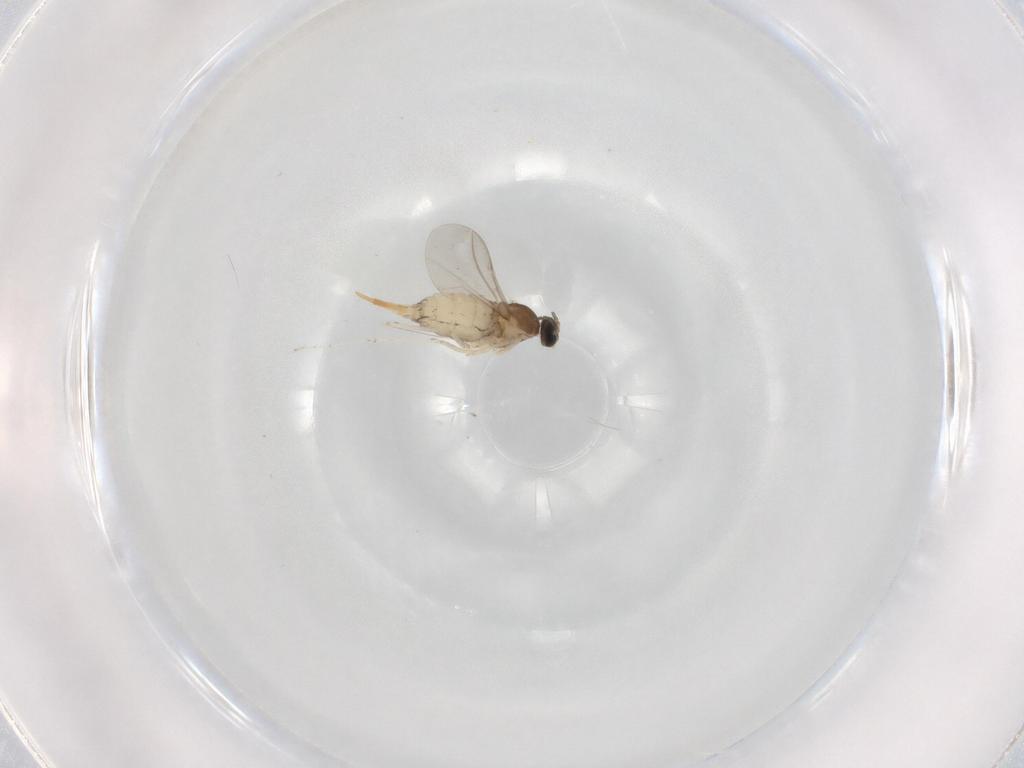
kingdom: Animalia
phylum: Arthropoda
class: Insecta
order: Diptera
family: Cecidomyiidae
